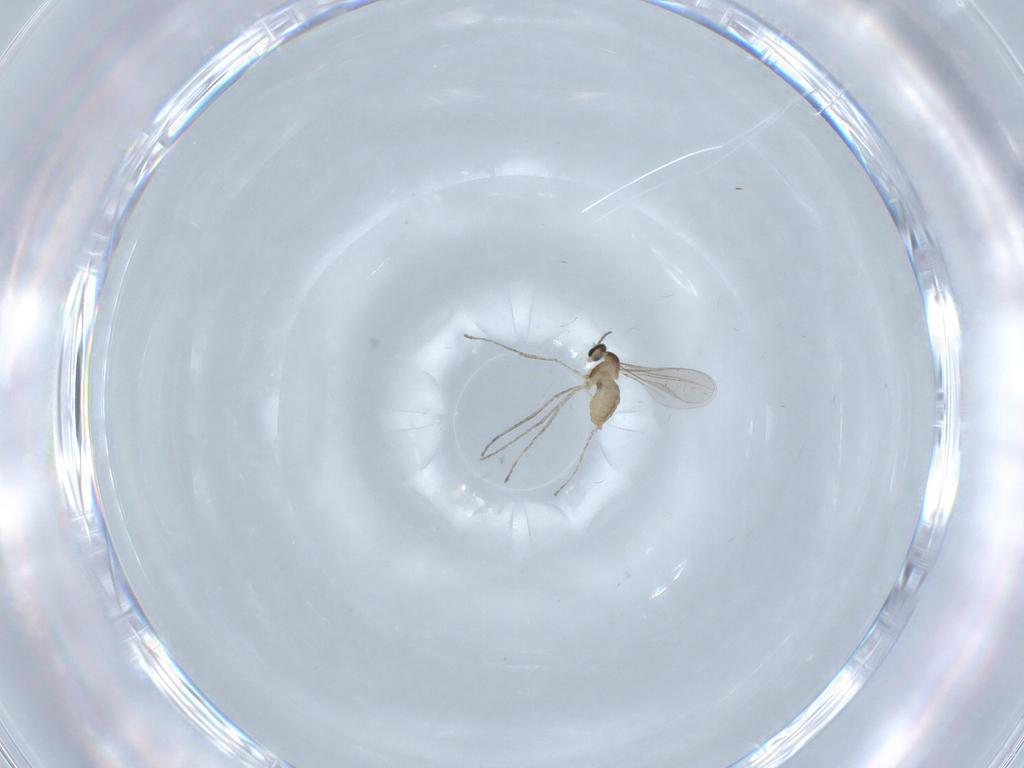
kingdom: Animalia
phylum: Arthropoda
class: Insecta
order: Diptera
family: Cecidomyiidae
